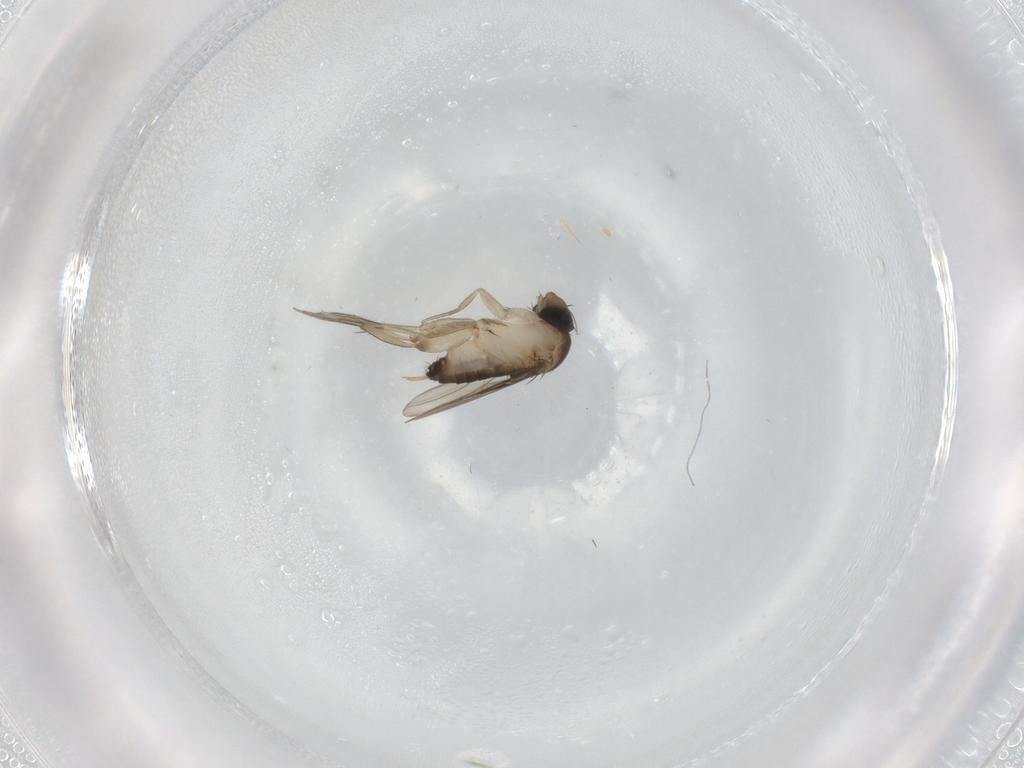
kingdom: Animalia
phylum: Arthropoda
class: Insecta
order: Diptera
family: Phoridae
